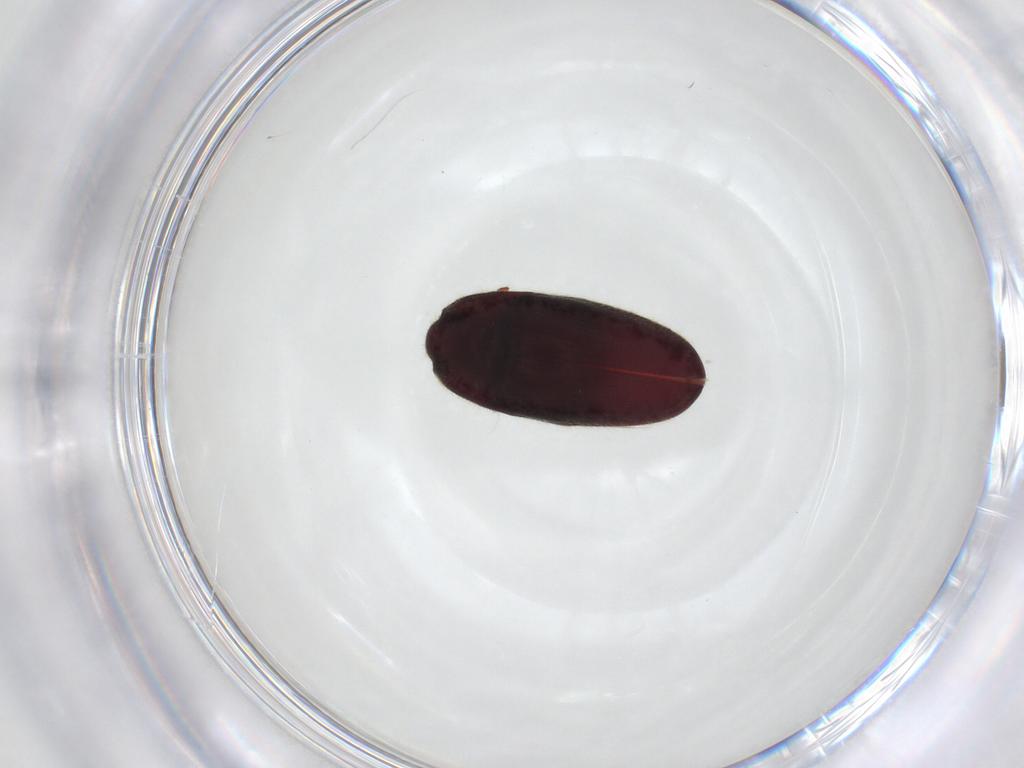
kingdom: Animalia
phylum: Arthropoda
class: Insecta
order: Coleoptera
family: Throscidae
